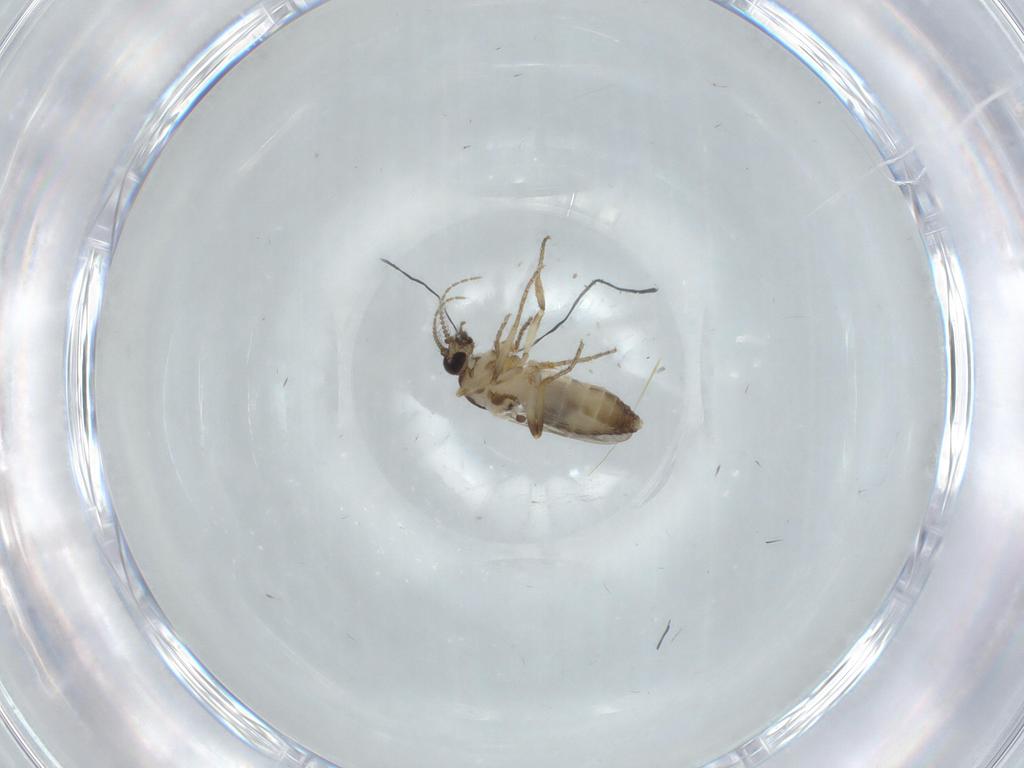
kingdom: Animalia
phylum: Arthropoda
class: Insecta
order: Diptera
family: Ceratopogonidae
